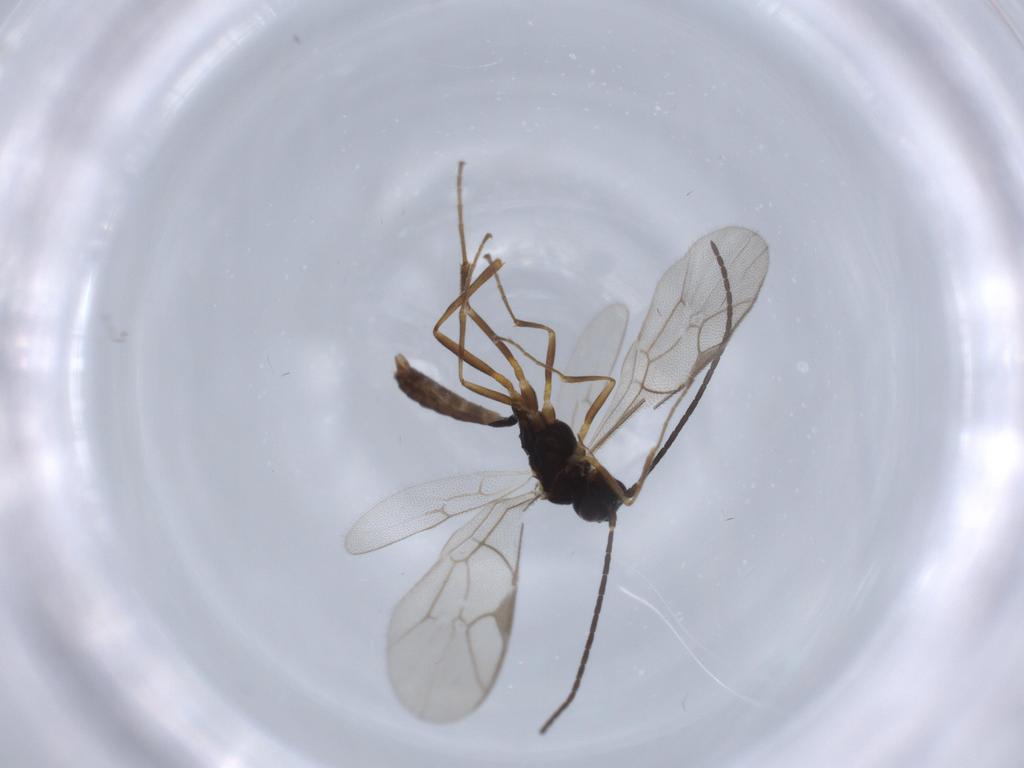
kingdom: Animalia
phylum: Arthropoda
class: Insecta
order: Hymenoptera
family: Ichneumonidae
